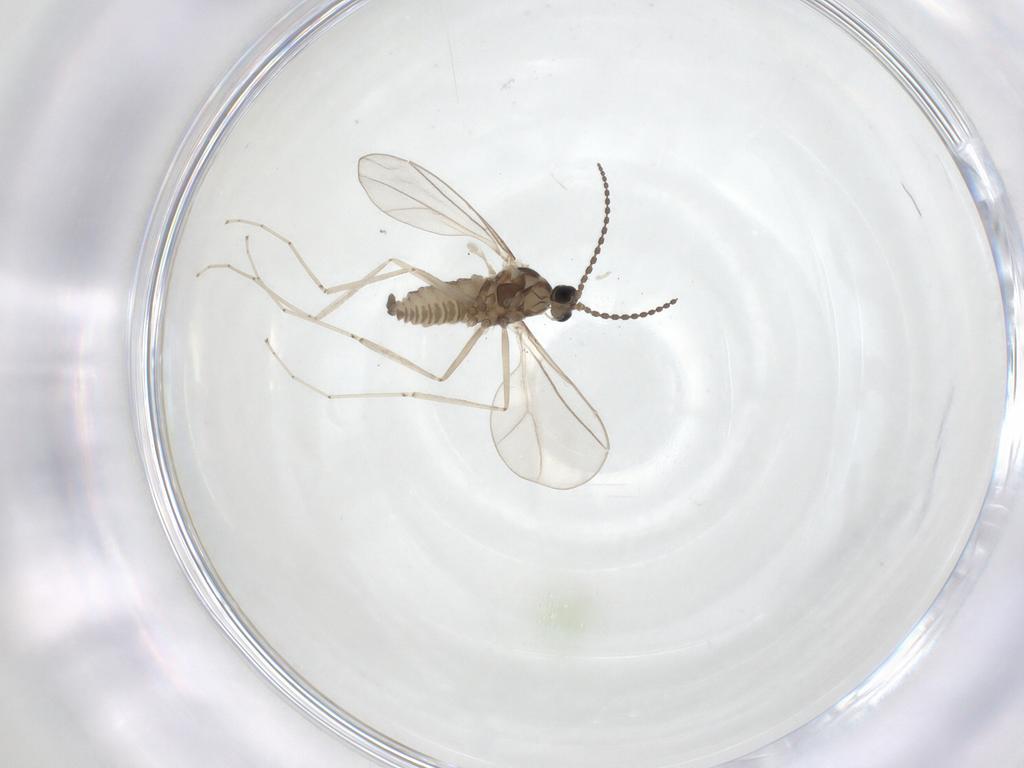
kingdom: Animalia
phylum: Arthropoda
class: Insecta
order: Diptera
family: Cecidomyiidae
